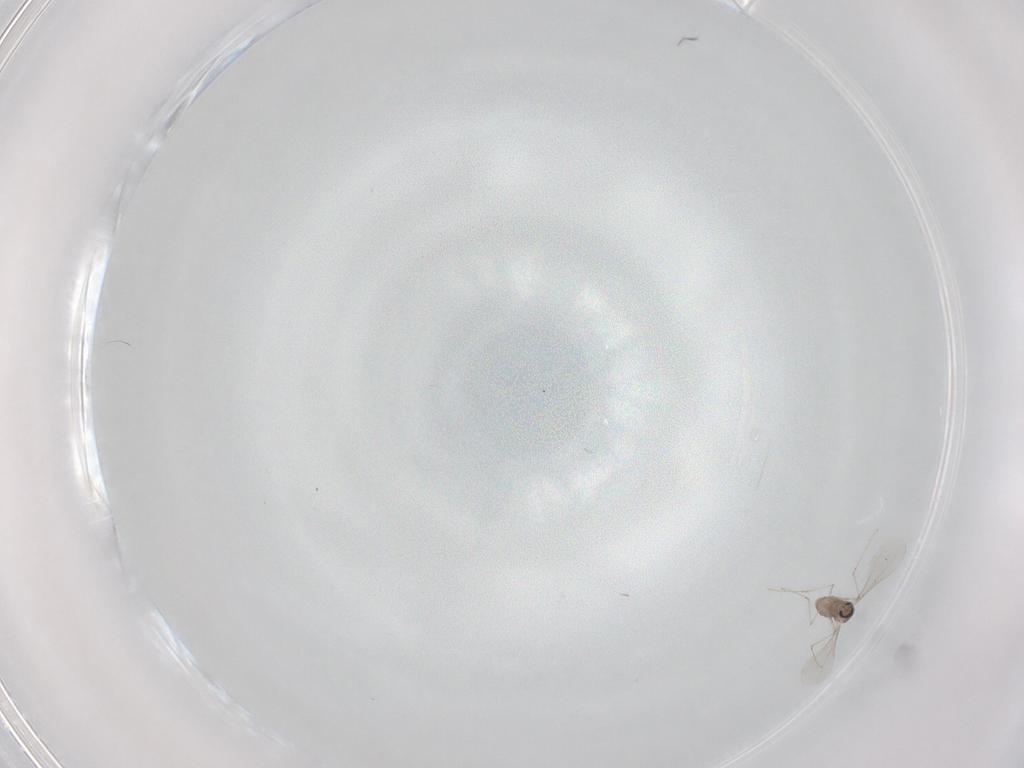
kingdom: Animalia
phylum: Arthropoda
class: Insecta
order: Diptera
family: Cecidomyiidae
